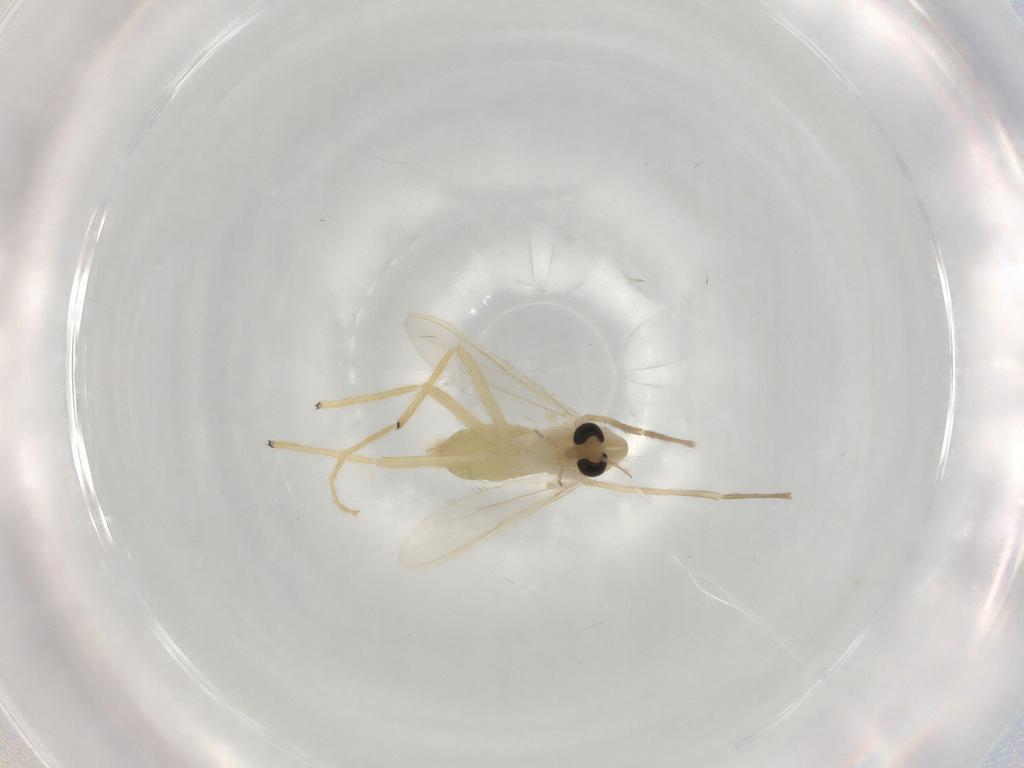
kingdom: Animalia
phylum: Arthropoda
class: Insecta
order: Diptera
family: Chironomidae
